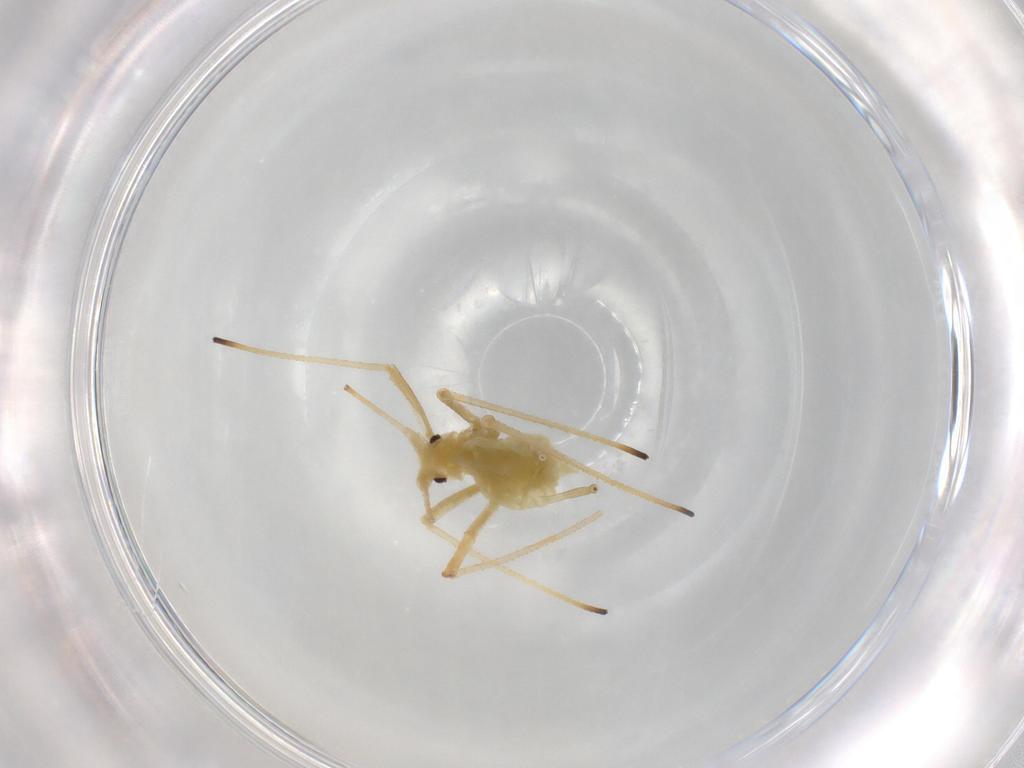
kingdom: Animalia
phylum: Arthropoda
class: Insecta
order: Hemiptera
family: Aphididae
